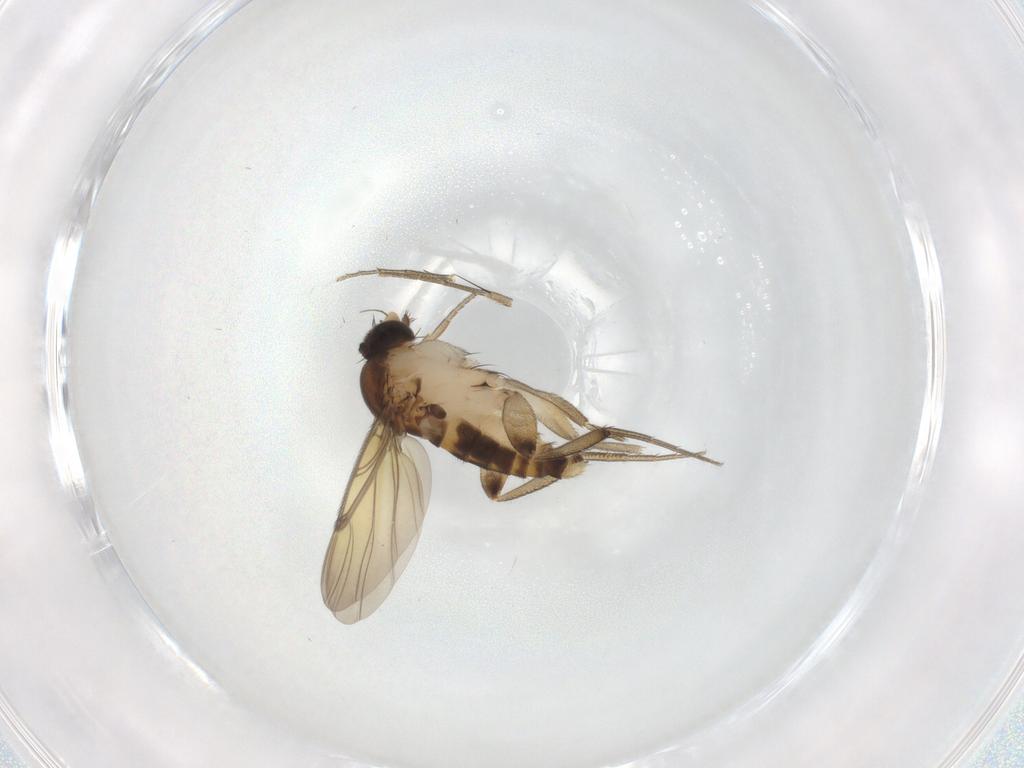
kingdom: Animalia
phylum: Arthropoda
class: Insecta
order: Diptera
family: Phoridae
